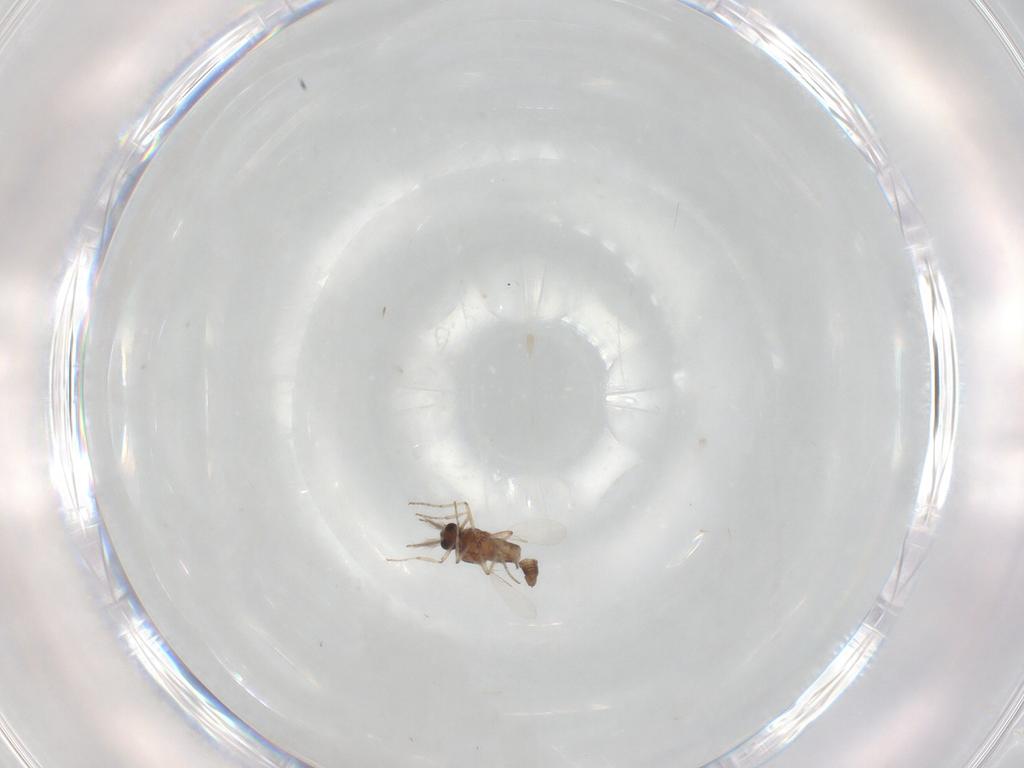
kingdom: Animalia
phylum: Arthropoda
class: Insecta
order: Diptera
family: Ceratopogonidae
